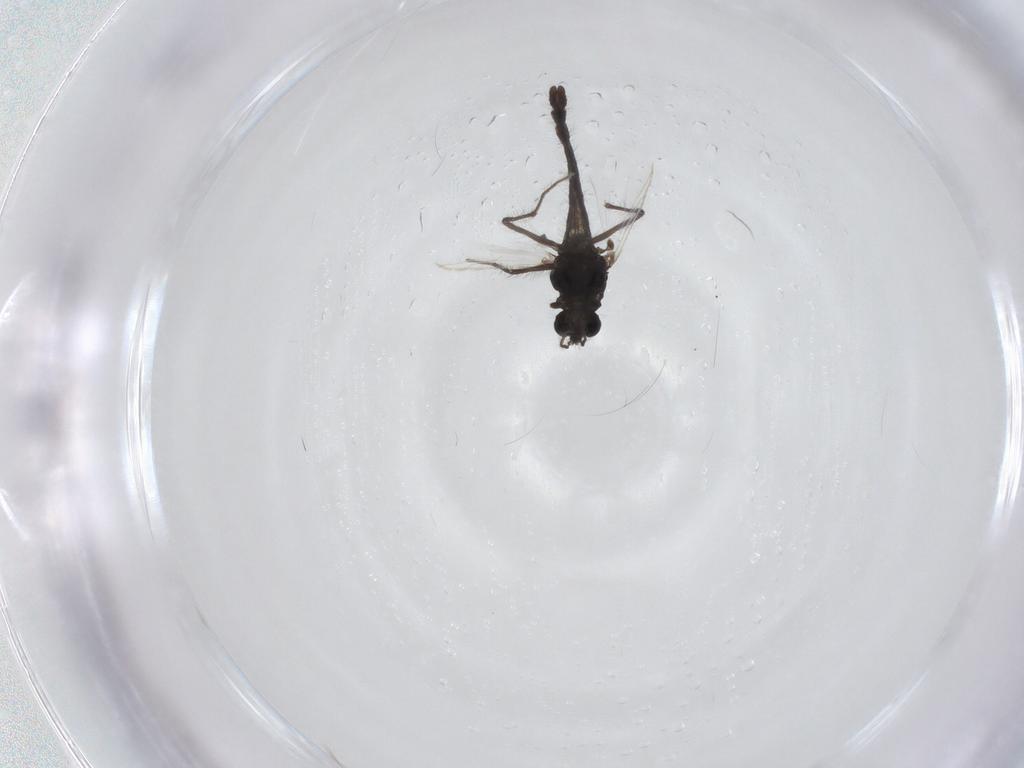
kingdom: Animalia
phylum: Arthropoda
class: Insecta
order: Diptera
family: Chironomidae
